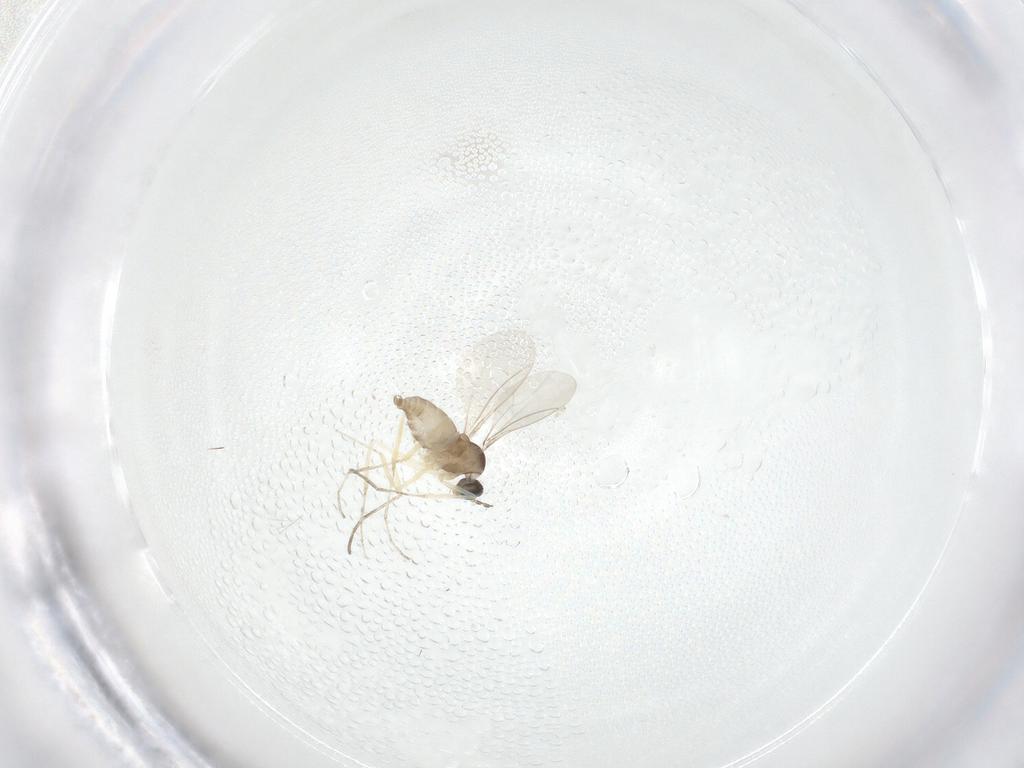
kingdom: Animalia
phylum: Arthropoda
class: Insecta
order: Diptera
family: Cecidomyiidae
